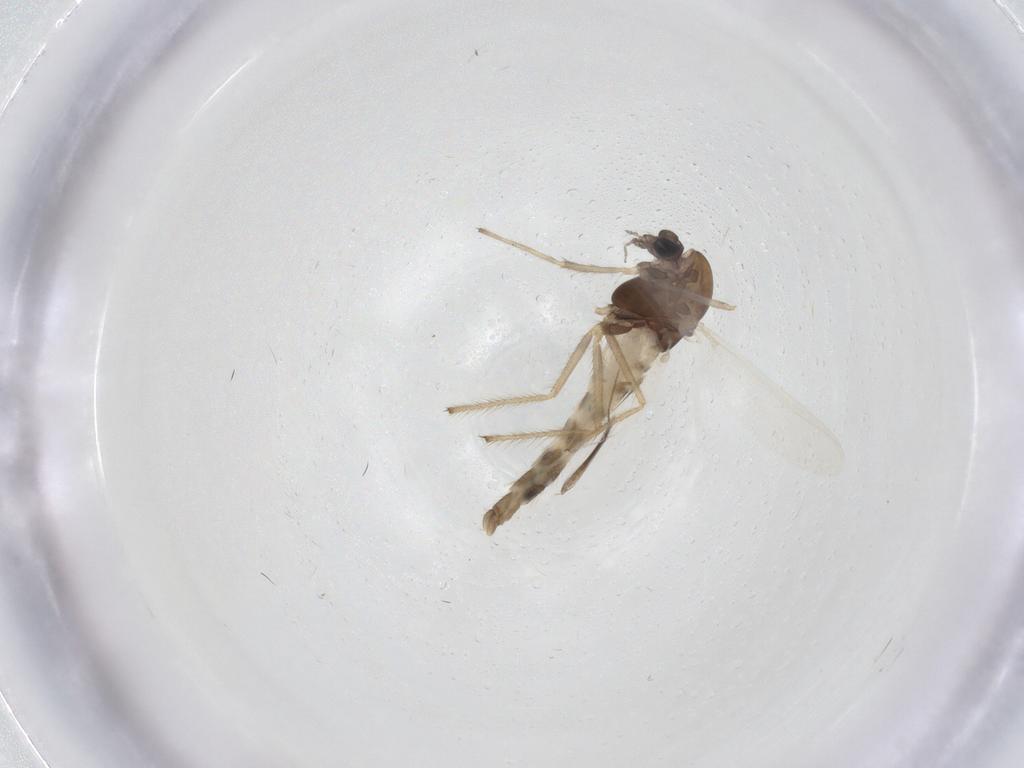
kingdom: Animalia
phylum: Arthropoda
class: Insecta
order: Diptera
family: Chironomidae
